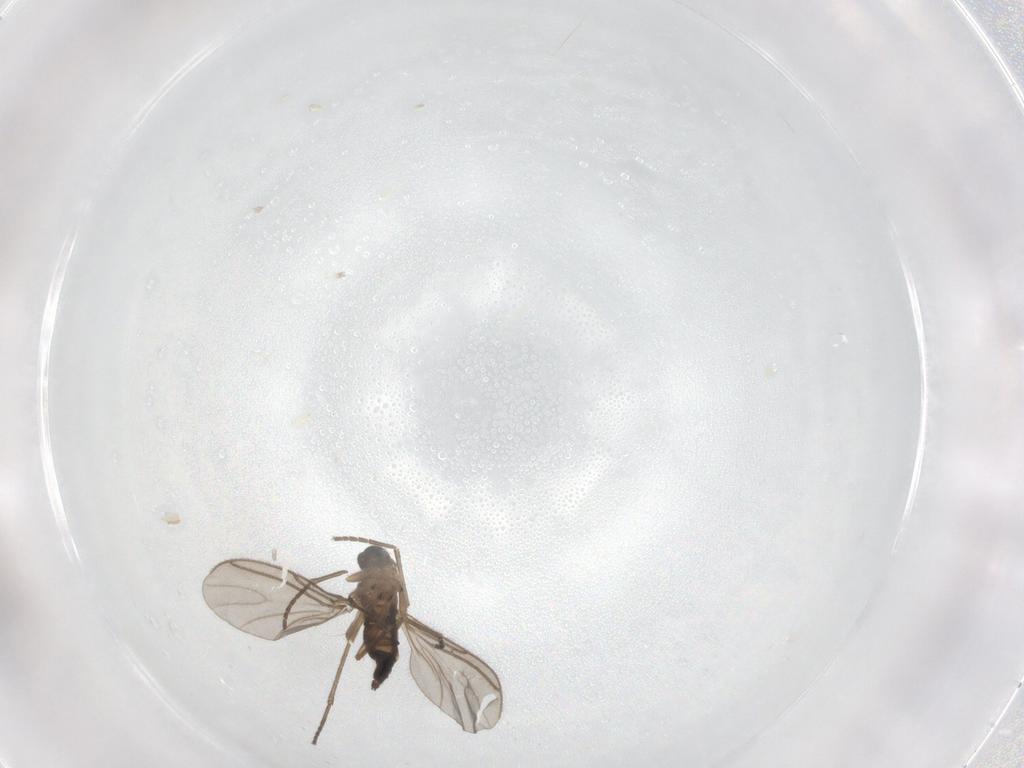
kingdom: Animalia
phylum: Arthropoda
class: Insecta
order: Diptera
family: Sciaridae
